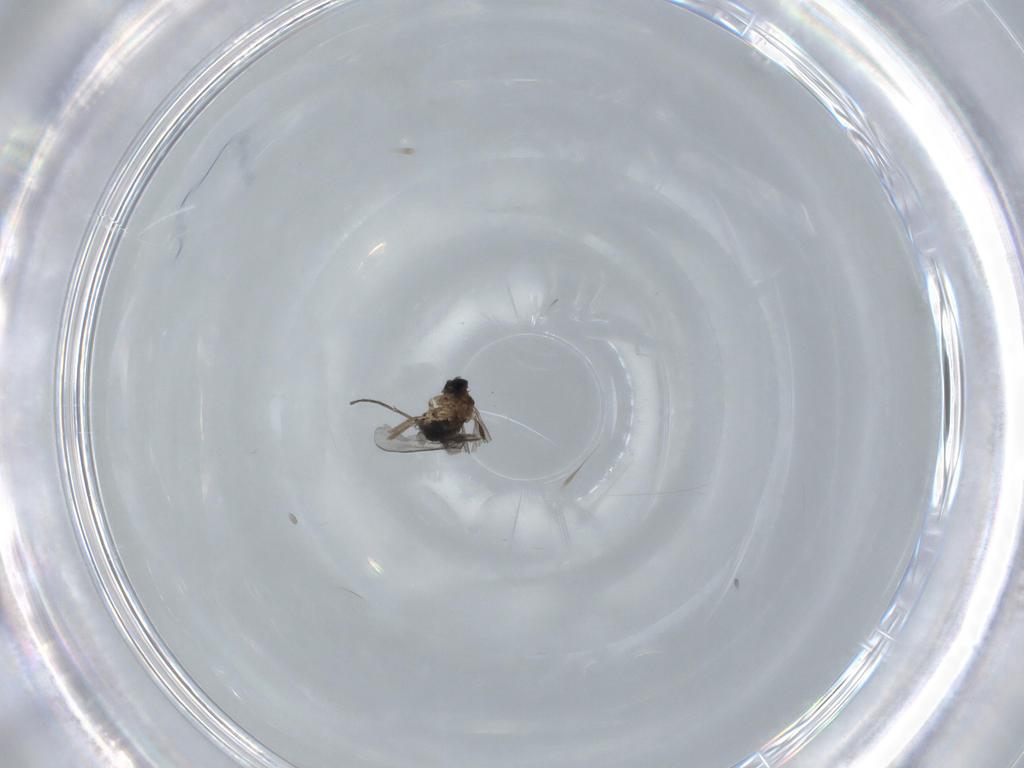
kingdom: Animalia
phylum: Arthropoda
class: Insecta
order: Diptera
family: Sciaridae
